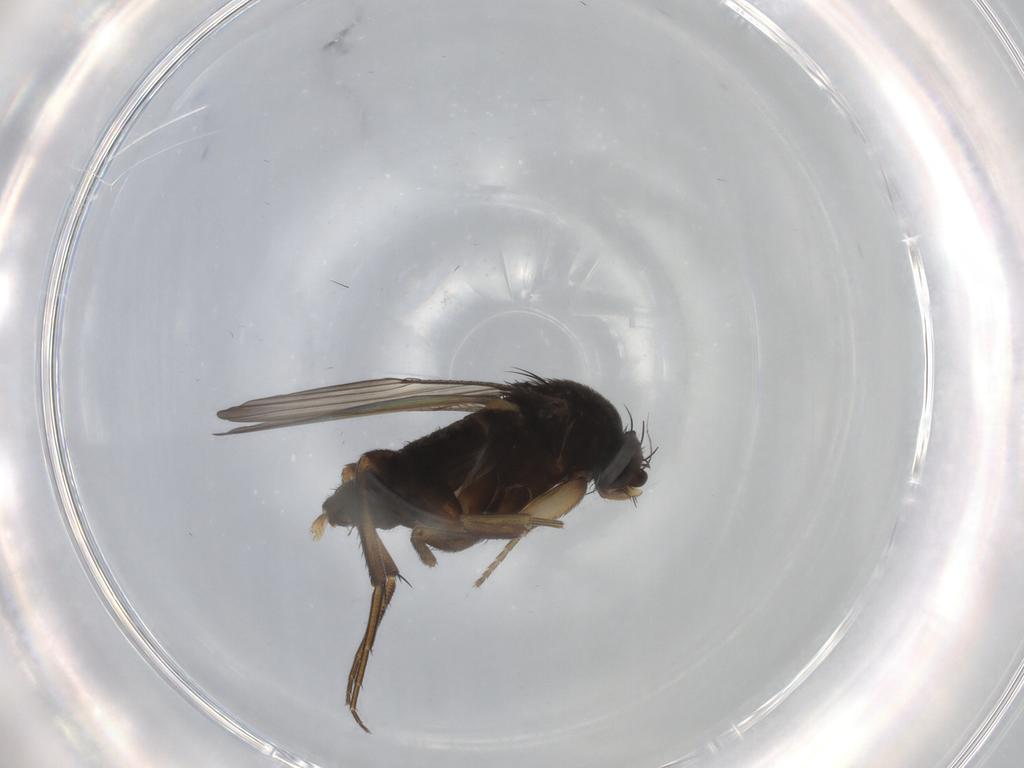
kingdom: Animalia
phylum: Arthropoda
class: Insecta
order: Diptera
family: Phoridae
